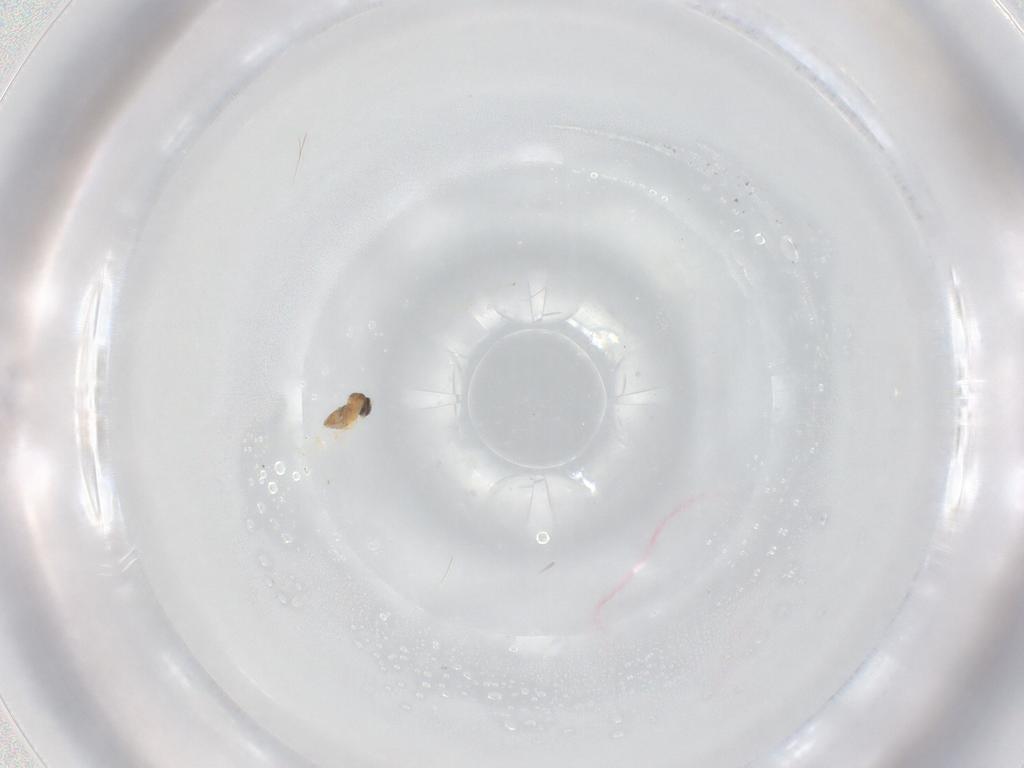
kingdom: Animalia
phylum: Arthropoda
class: Insecta
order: Diptera
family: Cecidomyiidae
